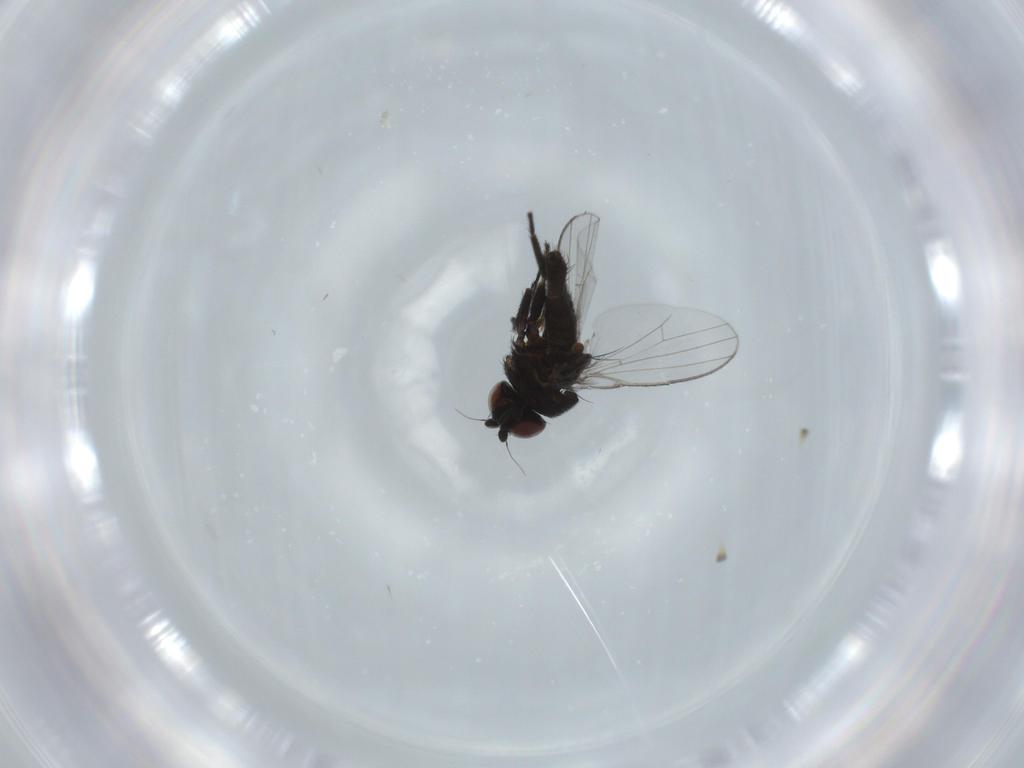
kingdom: Animalia
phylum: Arthropoda
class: Insecta
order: Diptera
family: Milichiidae
